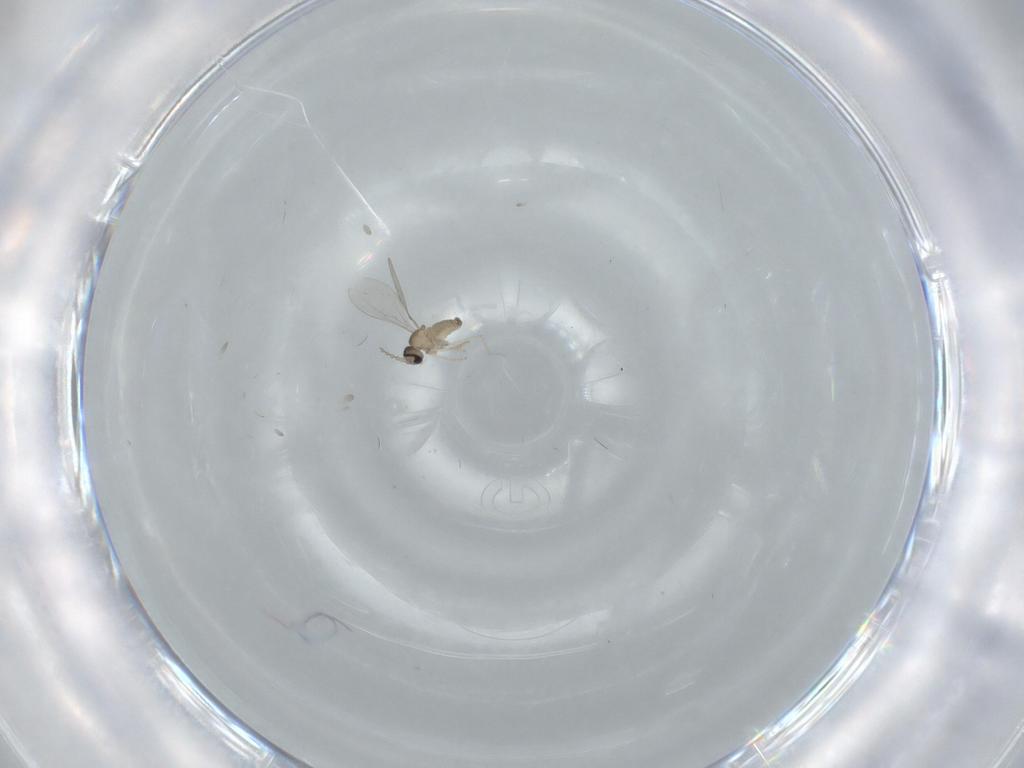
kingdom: Animalia
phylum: Arthropoda
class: Insecta
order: Diptera
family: Cecidomyiidae
